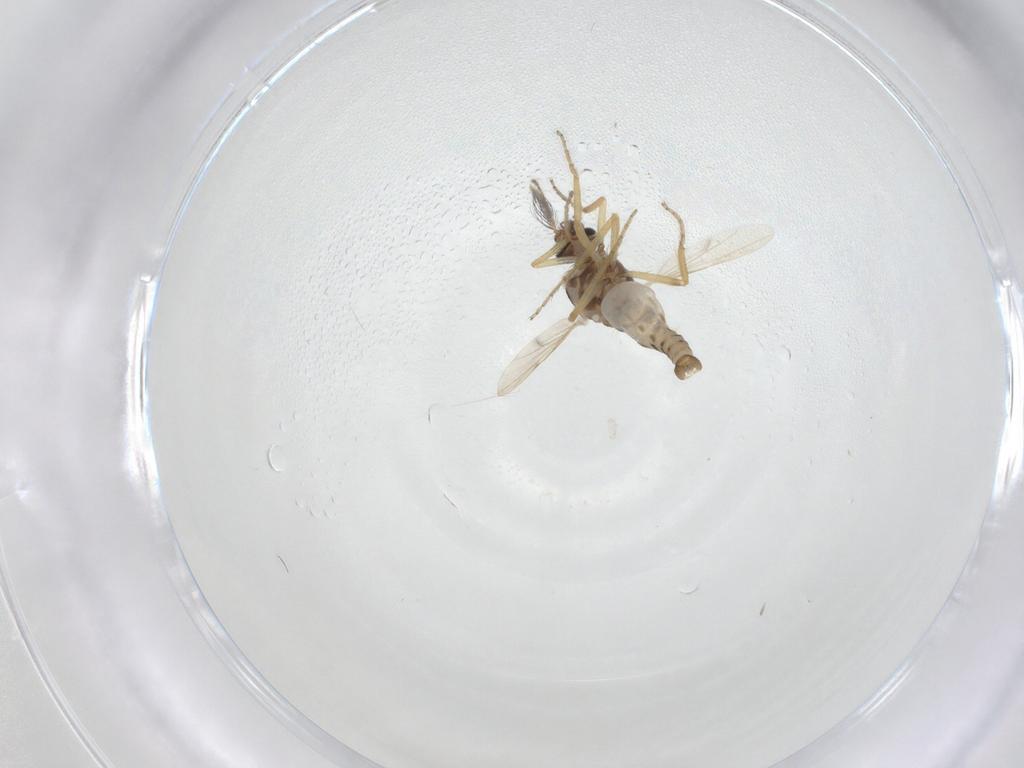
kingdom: Animalia
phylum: Arthropoda
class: Insecta
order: Diptera
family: Ceratopogonidae
